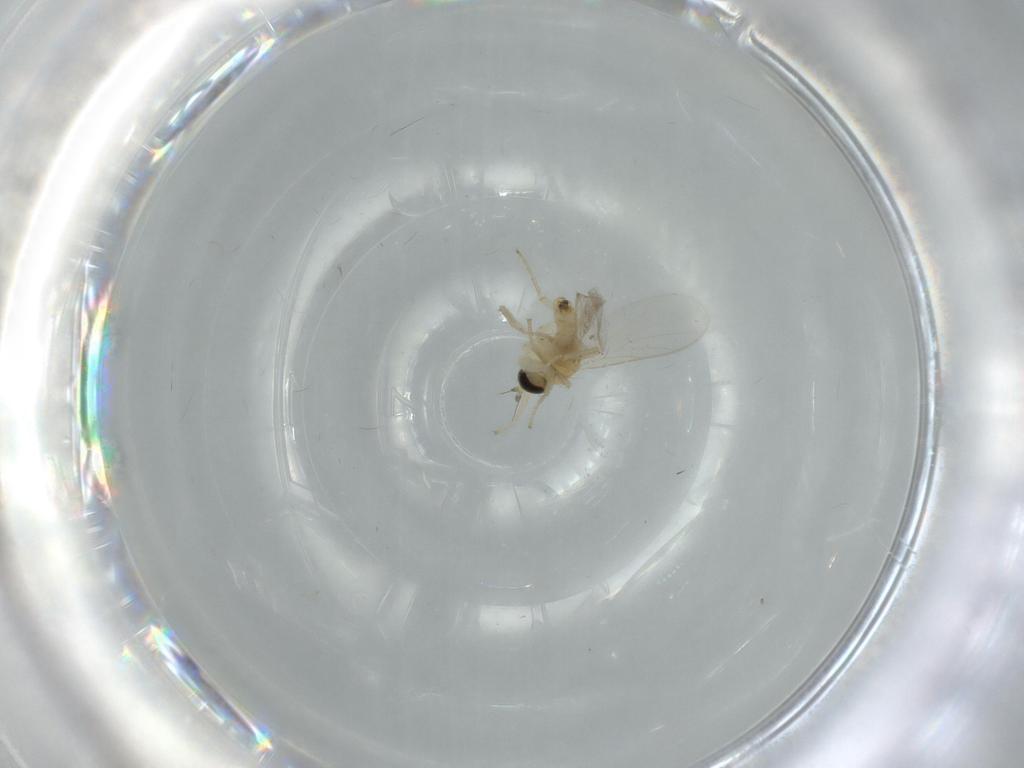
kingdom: Animalia
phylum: Arthropoda
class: Insecta
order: Diptera
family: Hybotidae
